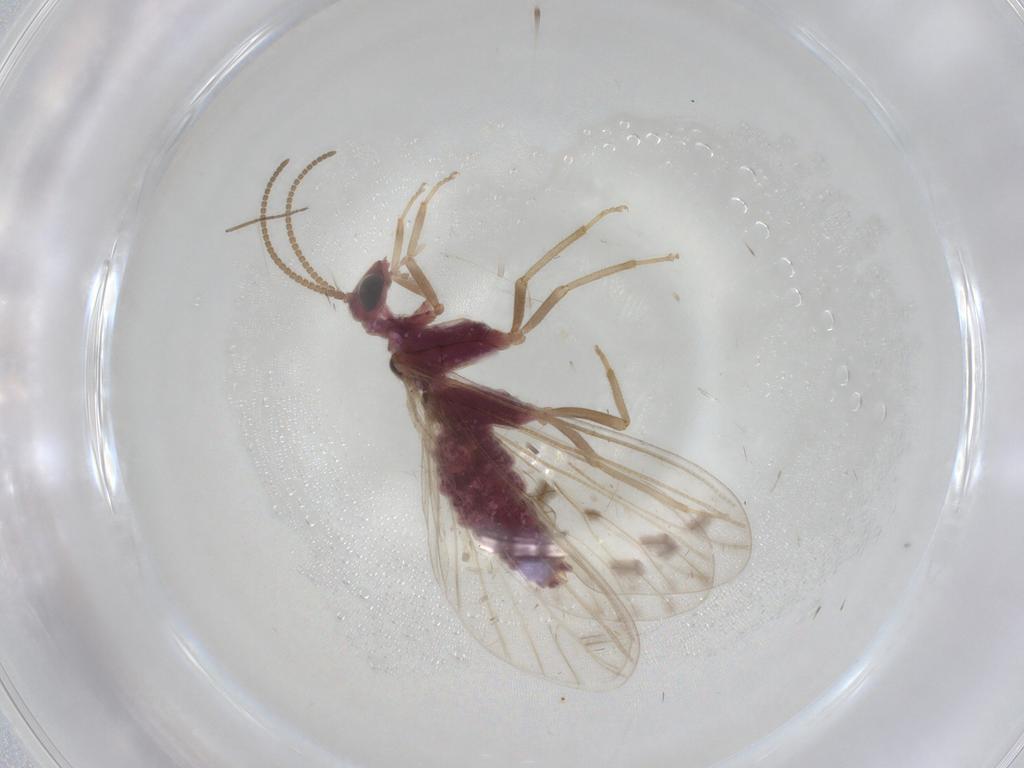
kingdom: Animalia
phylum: Arthropoda
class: Insecta
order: Neuroptera
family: Coniopterygidae
